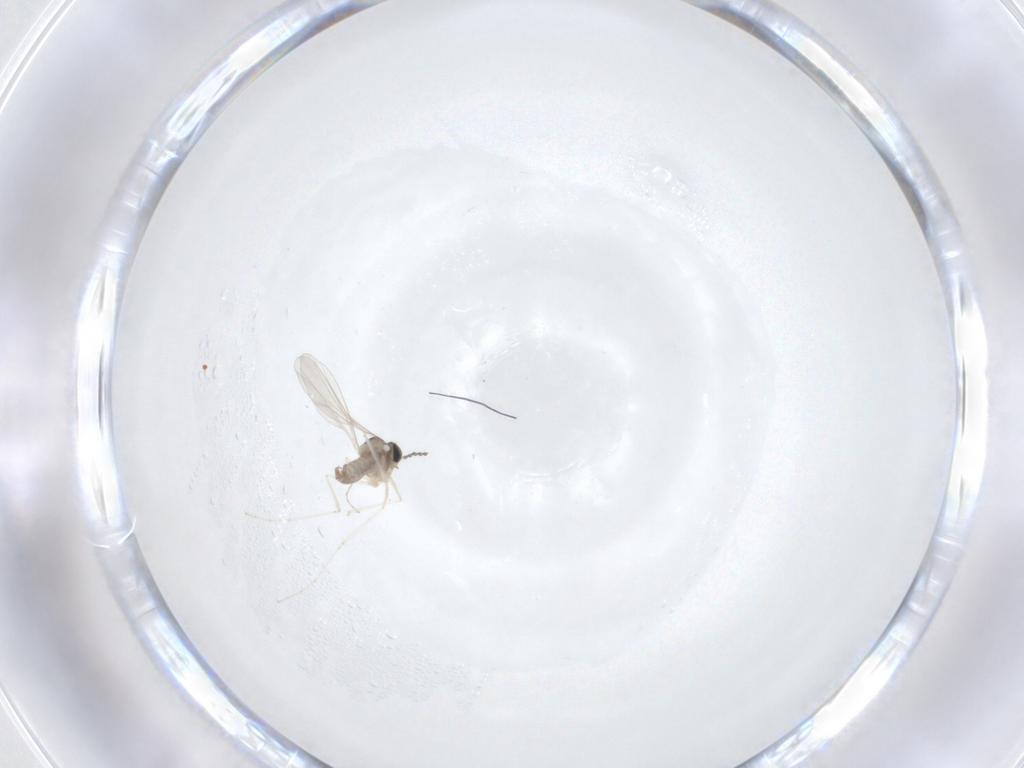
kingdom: Animalia
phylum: Arthropoda
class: Insecta
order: Diptera
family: Cecidomyiidae
